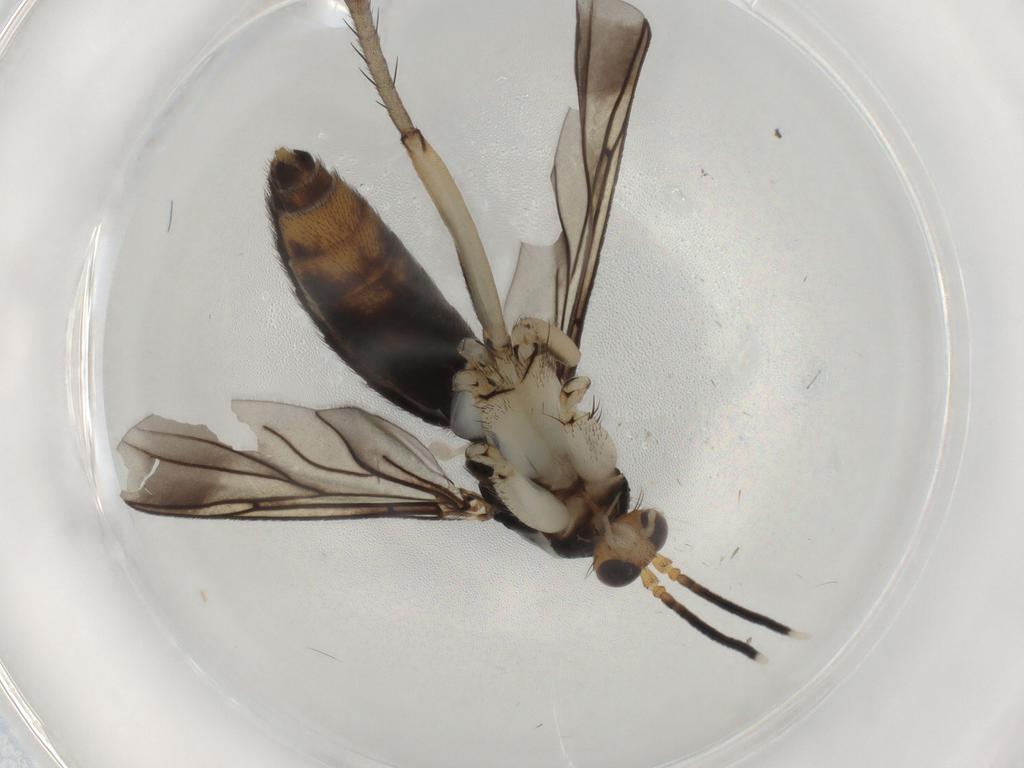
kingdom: Animalia
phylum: Arthropoda
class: Insecta
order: Diptera
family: Mycetophilidae
